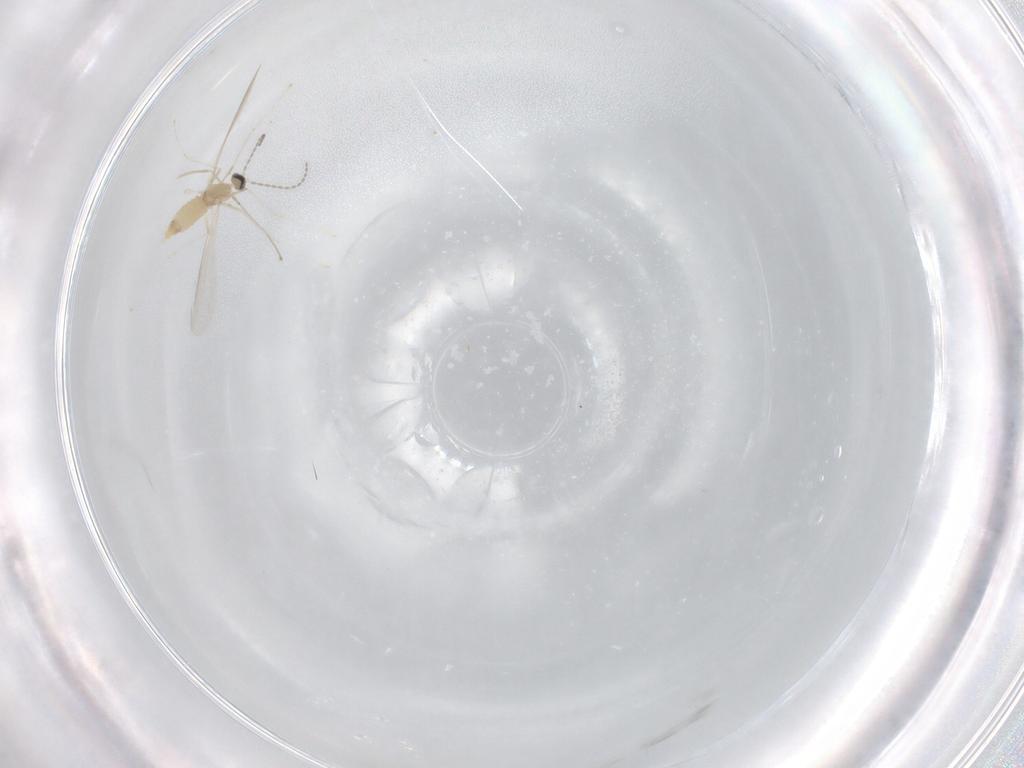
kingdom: Animalia
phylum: Arthropoda
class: Insecta
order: Diptera
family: Cecidomyiidae
